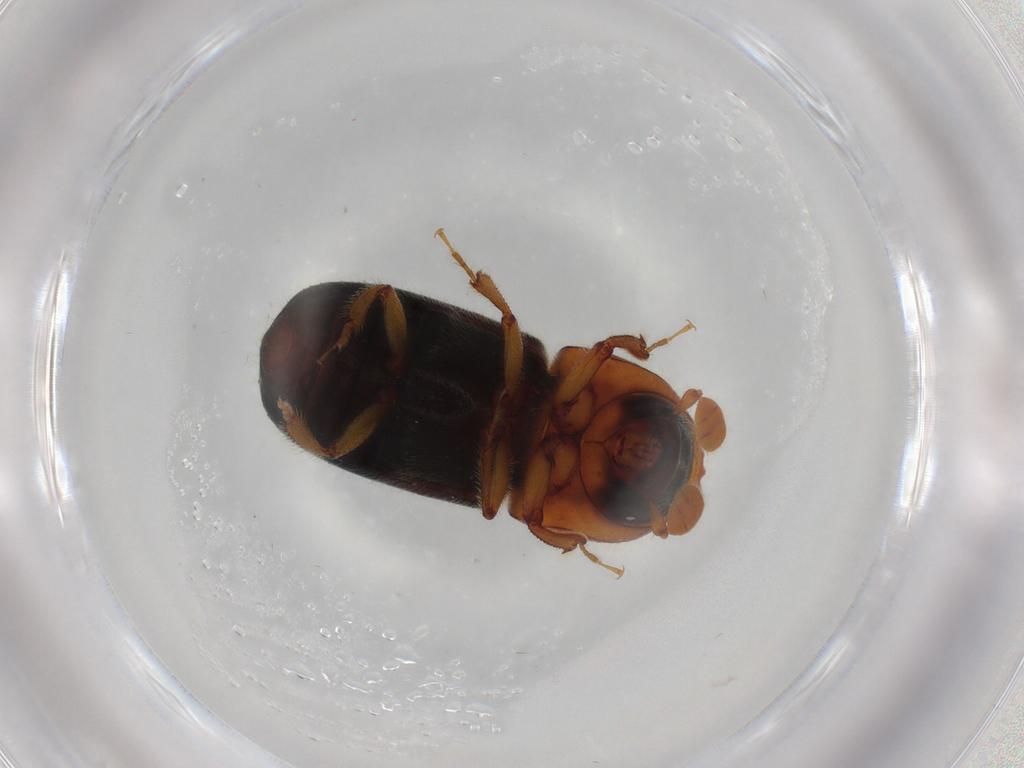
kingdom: Animalia
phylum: Arthropoda
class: Insecta
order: Coleoptera
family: Curculionidae
